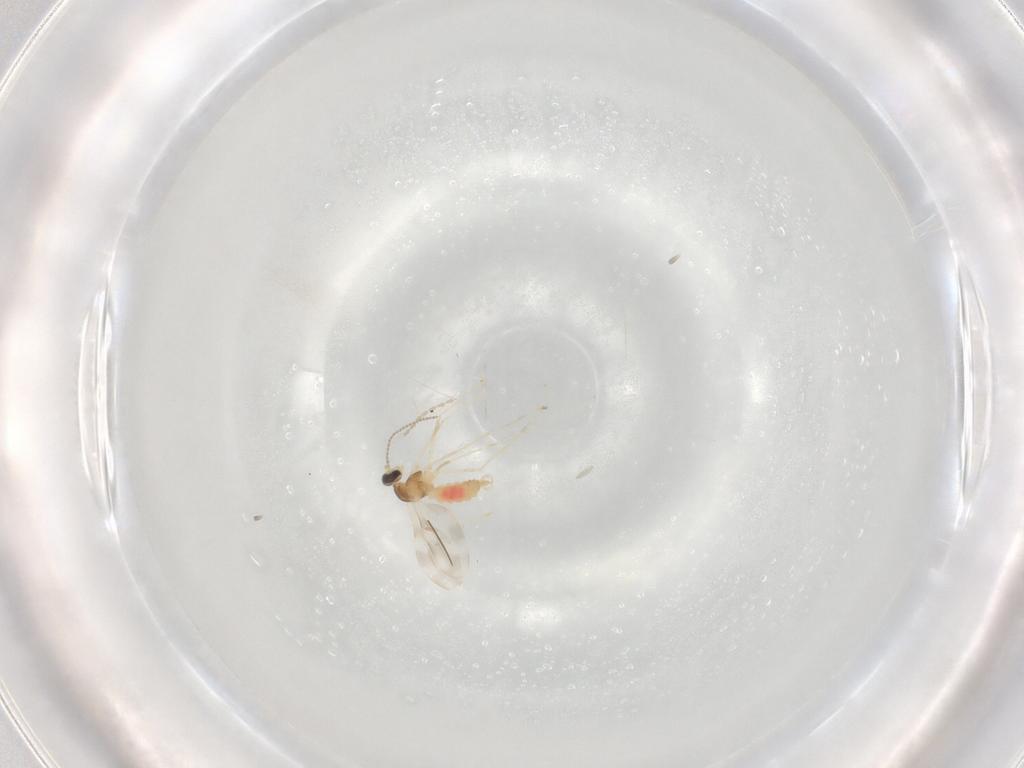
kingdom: Animalia
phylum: Arthropoda
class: Insecta
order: Diptera
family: Cecidomyiidae
